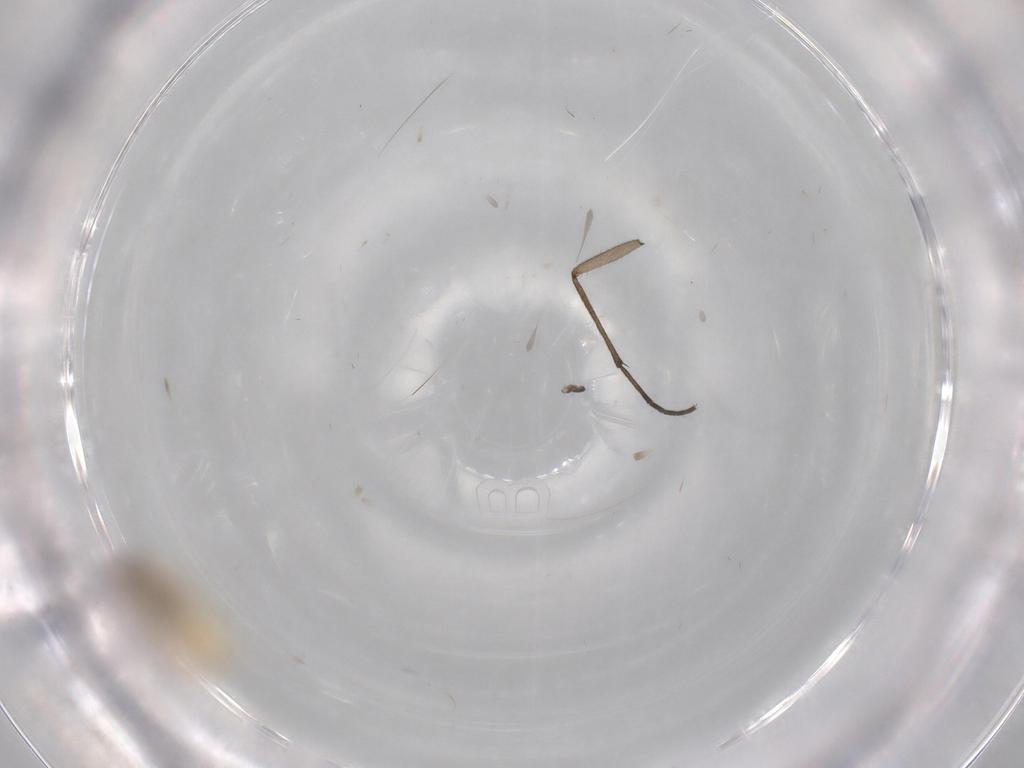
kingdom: Animalia
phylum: Arthropoda
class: Insecta
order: Diptera
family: Cecidomyiidae
